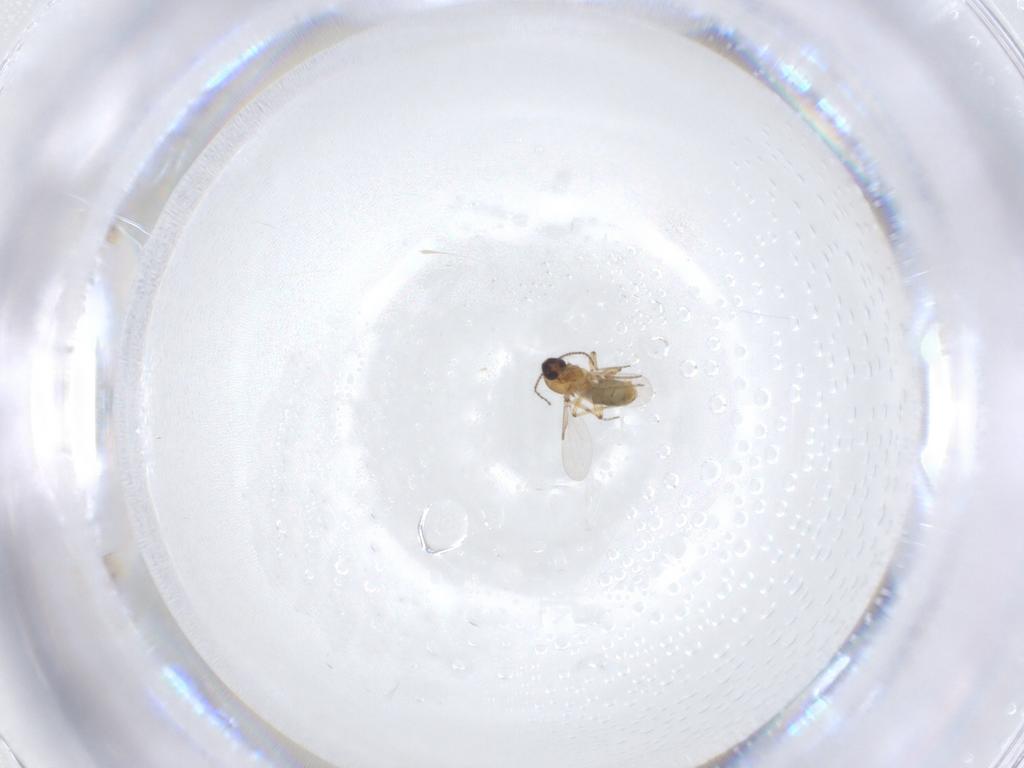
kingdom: Animalia
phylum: Arthropoda
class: Insecta
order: Diptera
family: Ceratopogonidae
